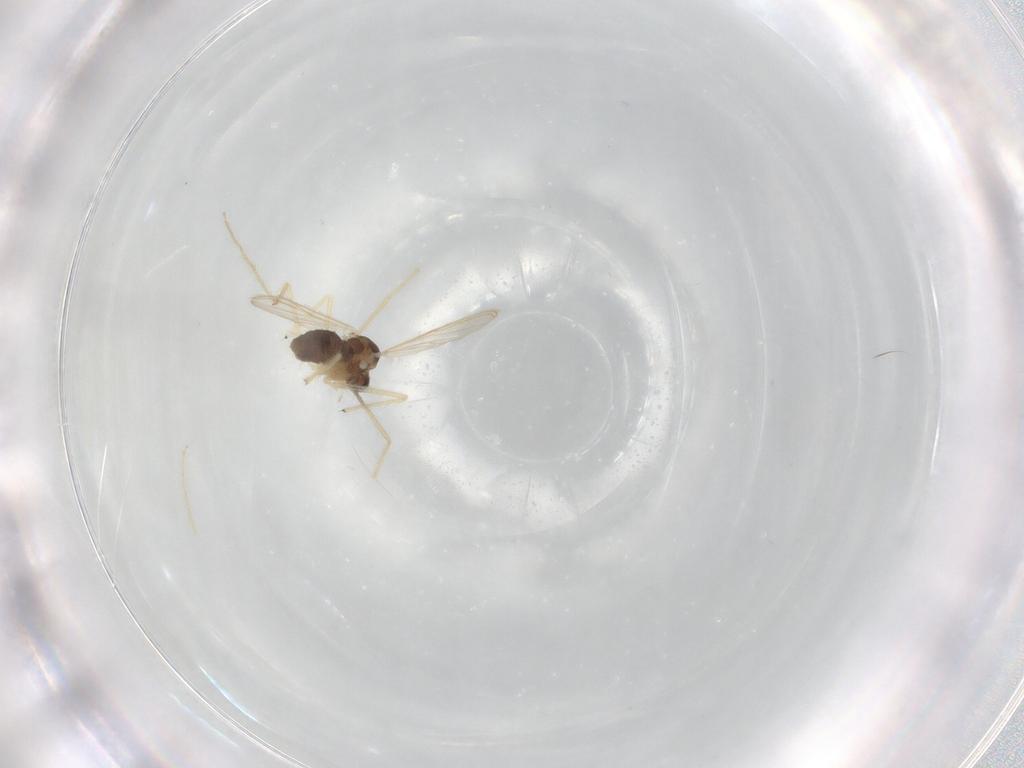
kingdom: Animalia
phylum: Arthropoda
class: Insecta
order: Diptera
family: Chironomidae
